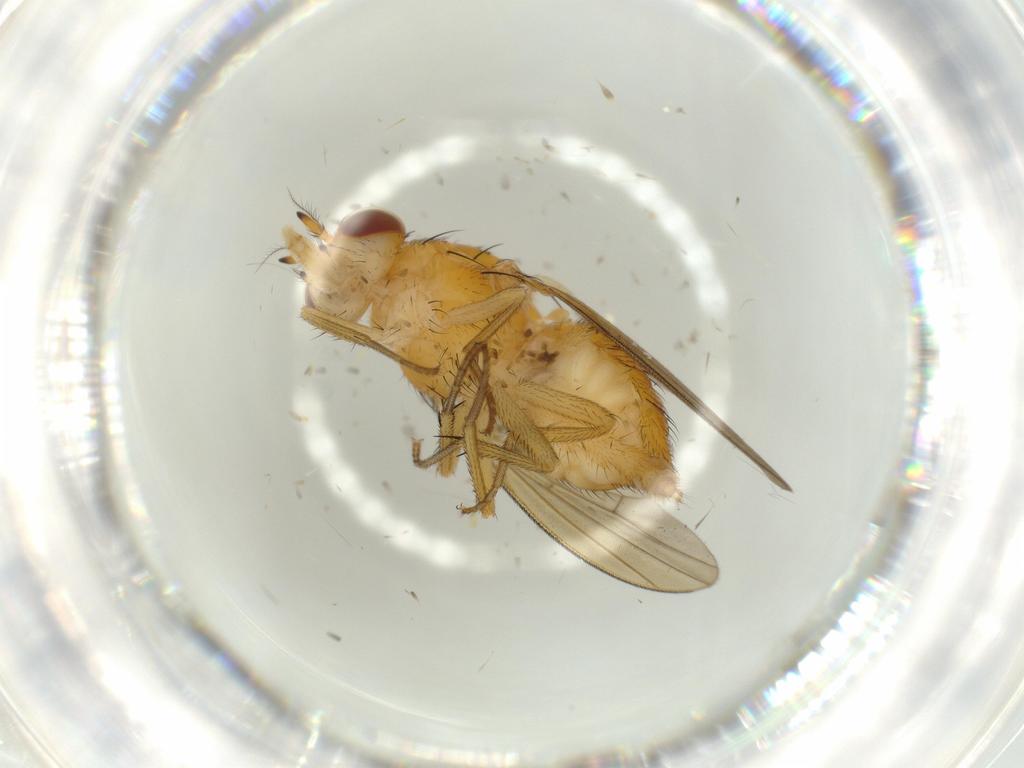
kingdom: Animalia
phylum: Arthropoda
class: Insecta
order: Diptera
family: Lauxaniidae
